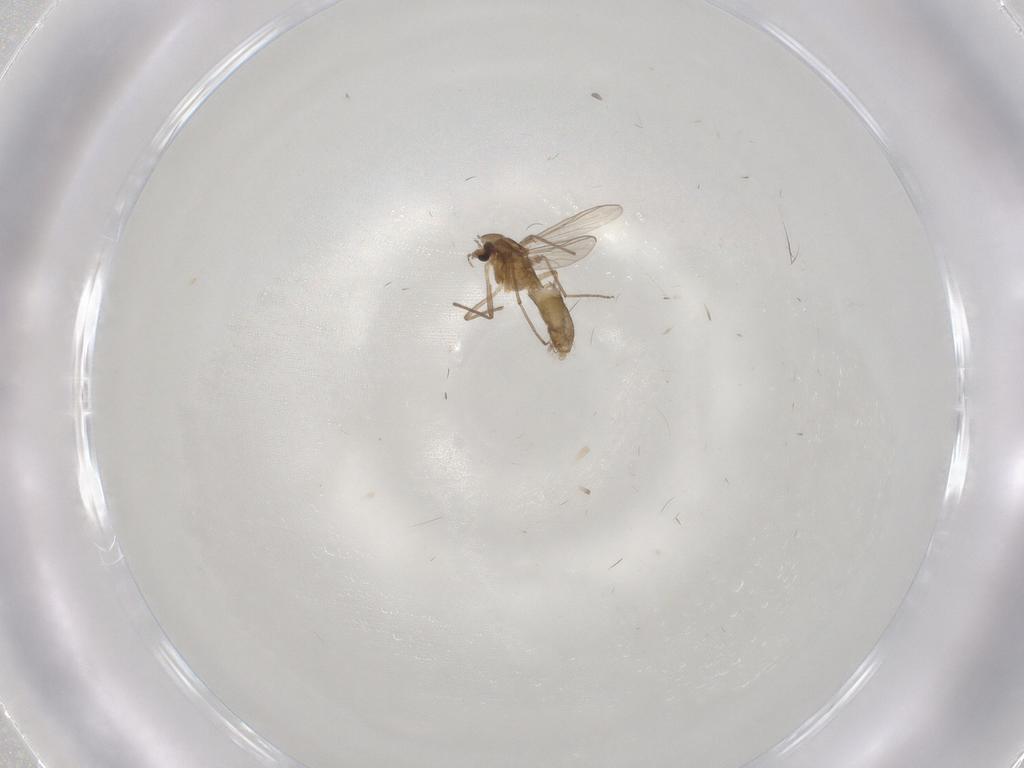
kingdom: Animalia
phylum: Arthropoda
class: Insecta
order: Diptera
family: Chironomidae
